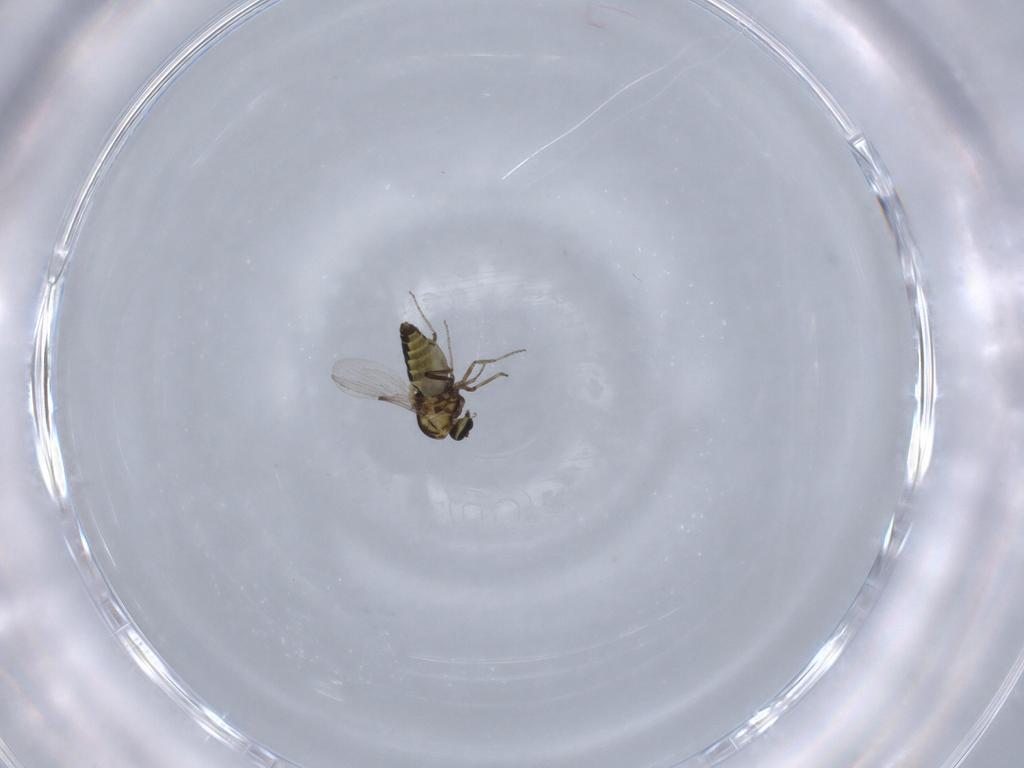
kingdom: Animalia
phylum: Arthropoda
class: Insecta
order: Diptera
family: Ceratopogonidae
